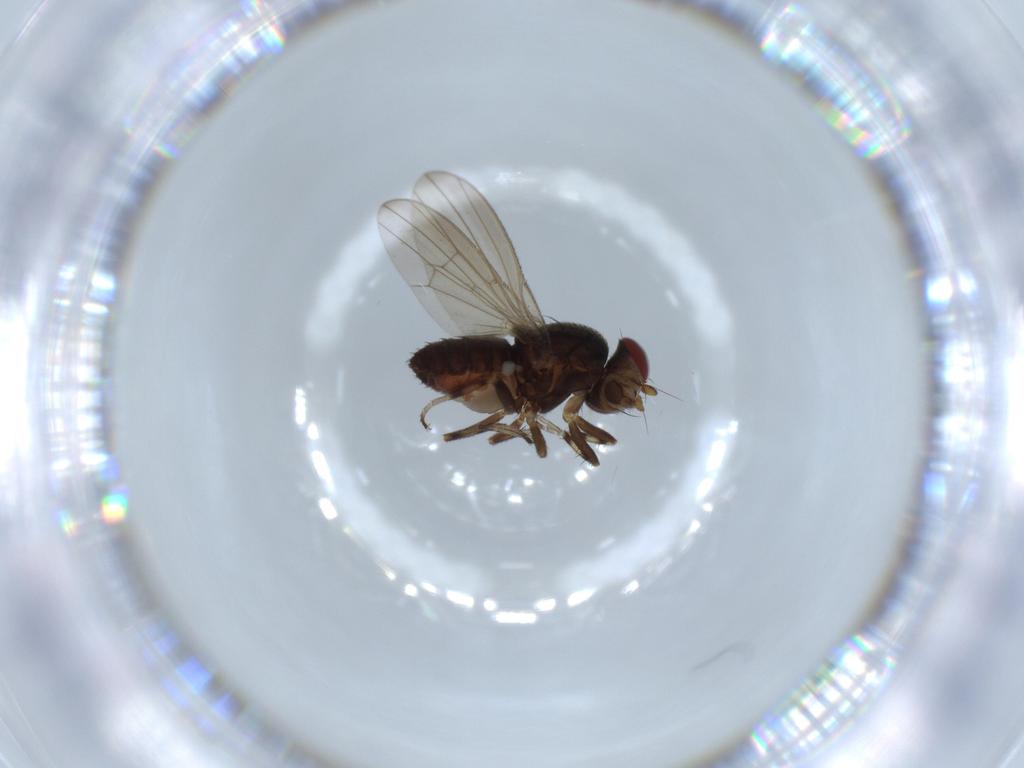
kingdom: Animalia
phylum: Arthropoda
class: Insecta
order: Diptera
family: Heleomyzidae
